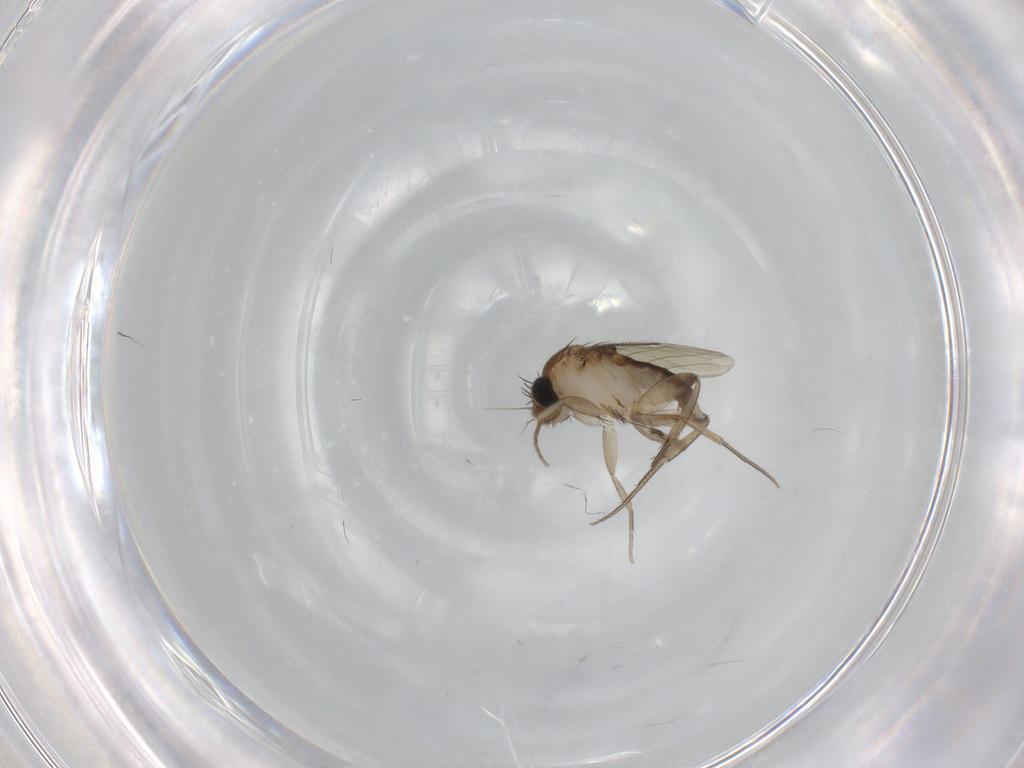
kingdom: Animalia
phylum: Arthropoda
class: Insecta
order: Diptera
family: Phoridae
